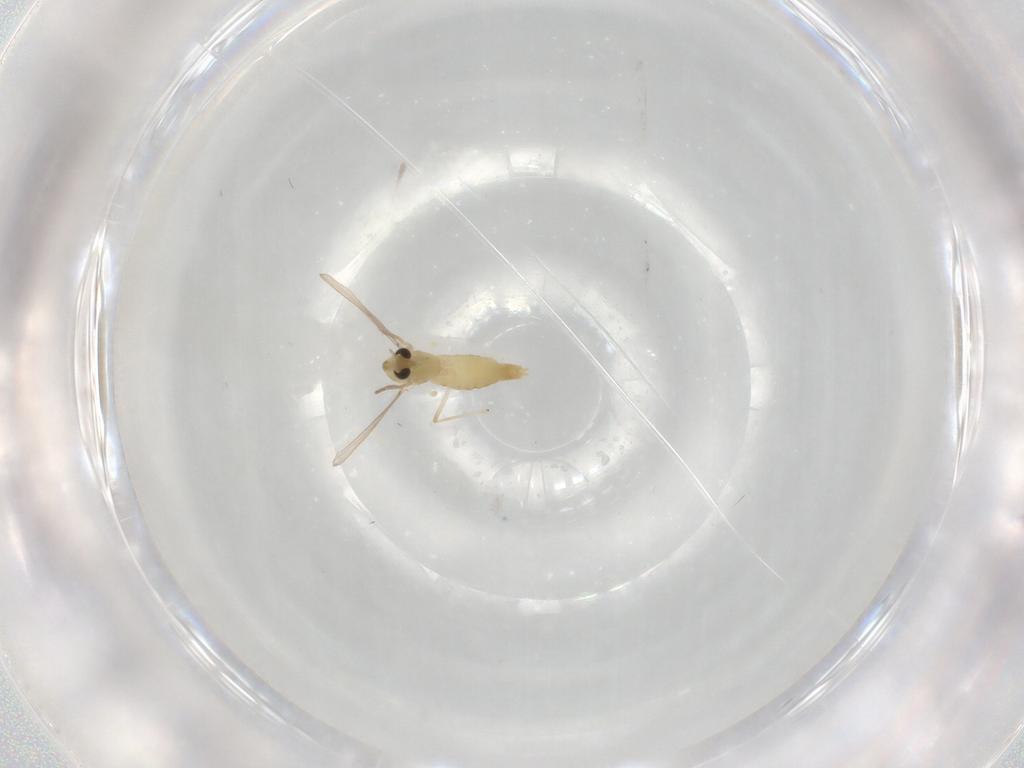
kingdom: Animalia
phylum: Arthropoda
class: Insecta
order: Diptera
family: Chironomidae
